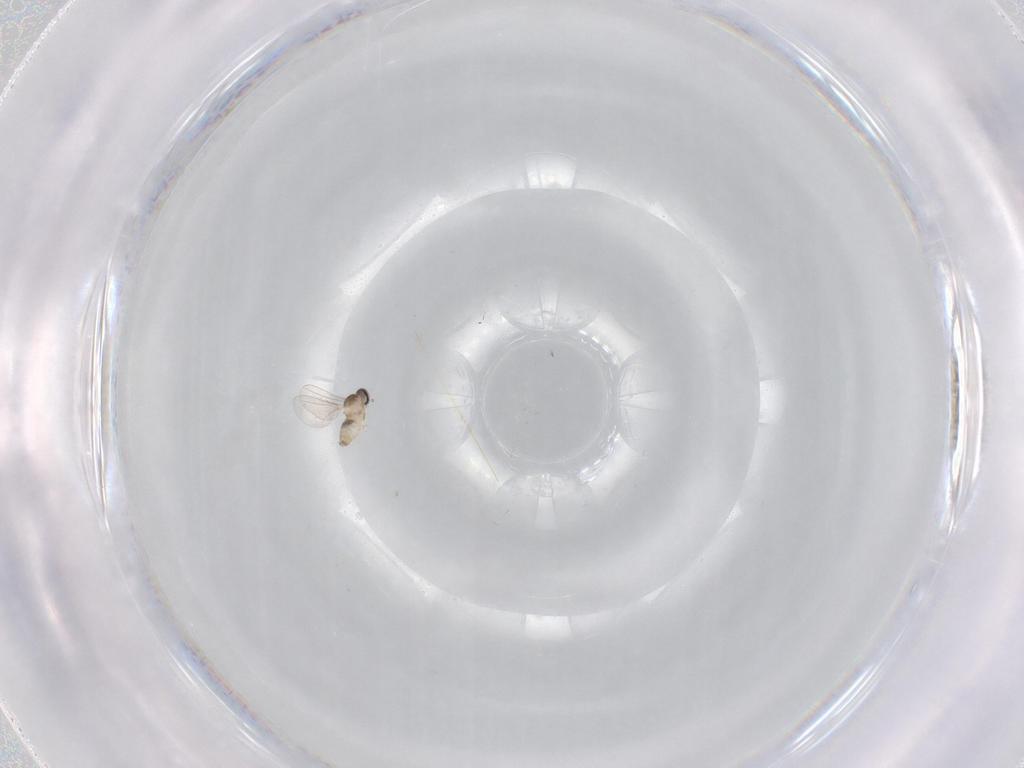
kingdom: Animalia
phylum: Arthropoda
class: Insecta
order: Diptera
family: Cecidomyiidae
